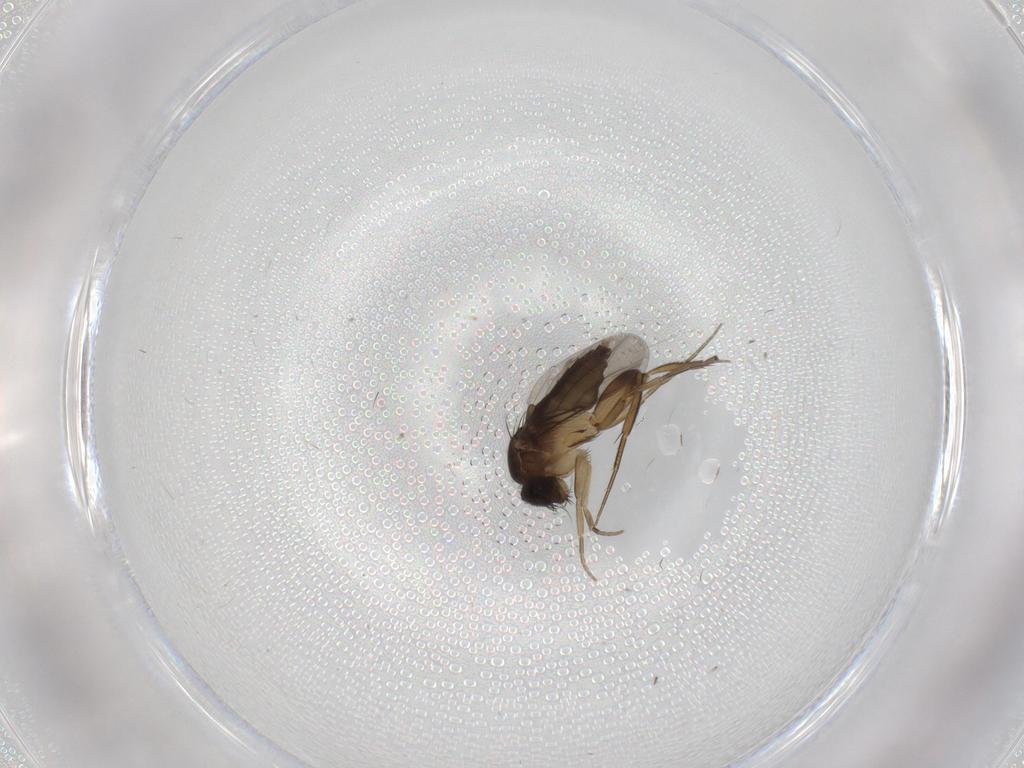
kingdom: Animalia
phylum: Arthropoda
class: Insecta
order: Diptera
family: Phoridae
